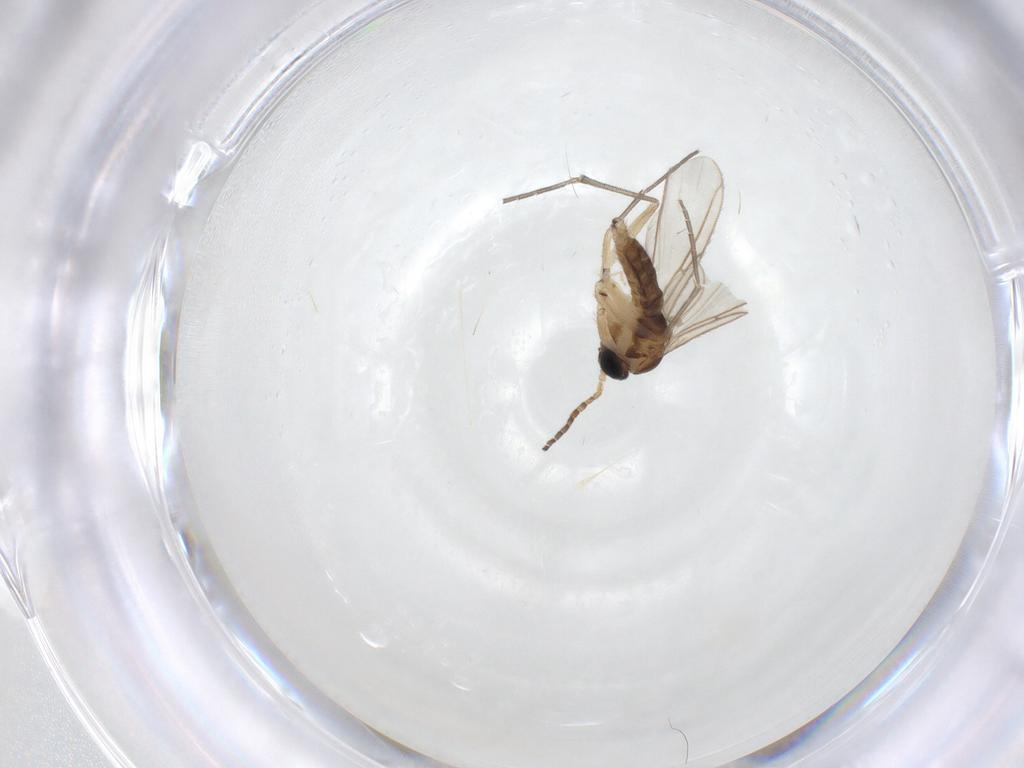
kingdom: Animalia
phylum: Arthropoda
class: Insecta
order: Diptera
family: Sciaridae
